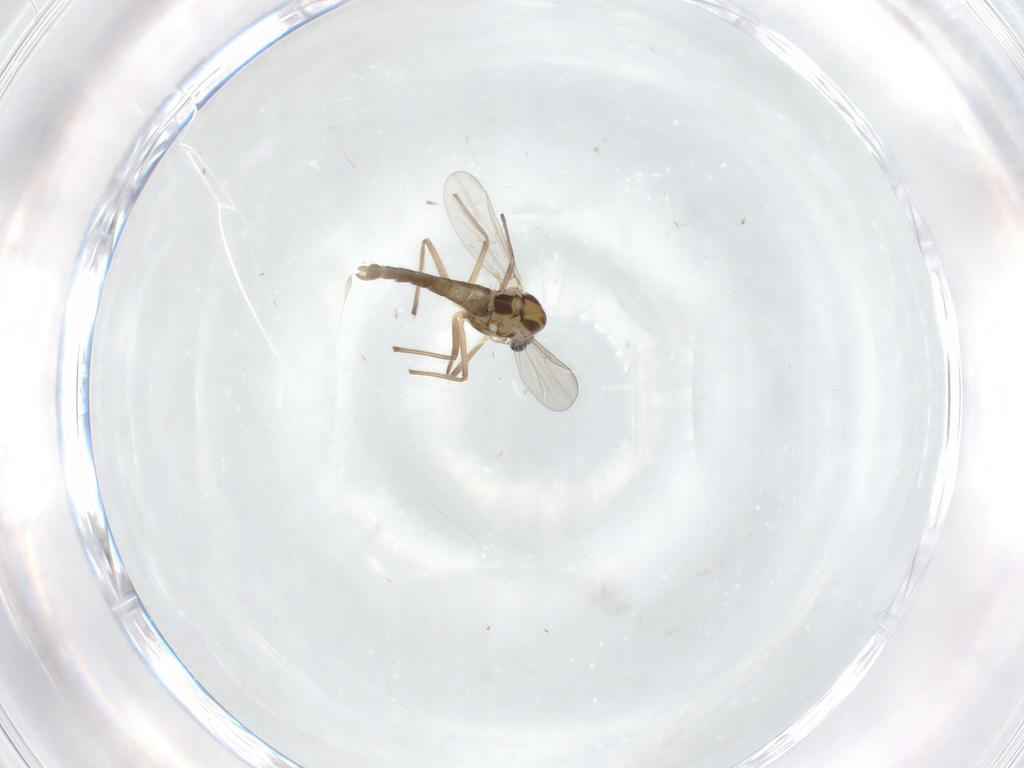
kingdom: Animalia
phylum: Arthropoda
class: Insecta
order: Diptera
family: Chironomidae
